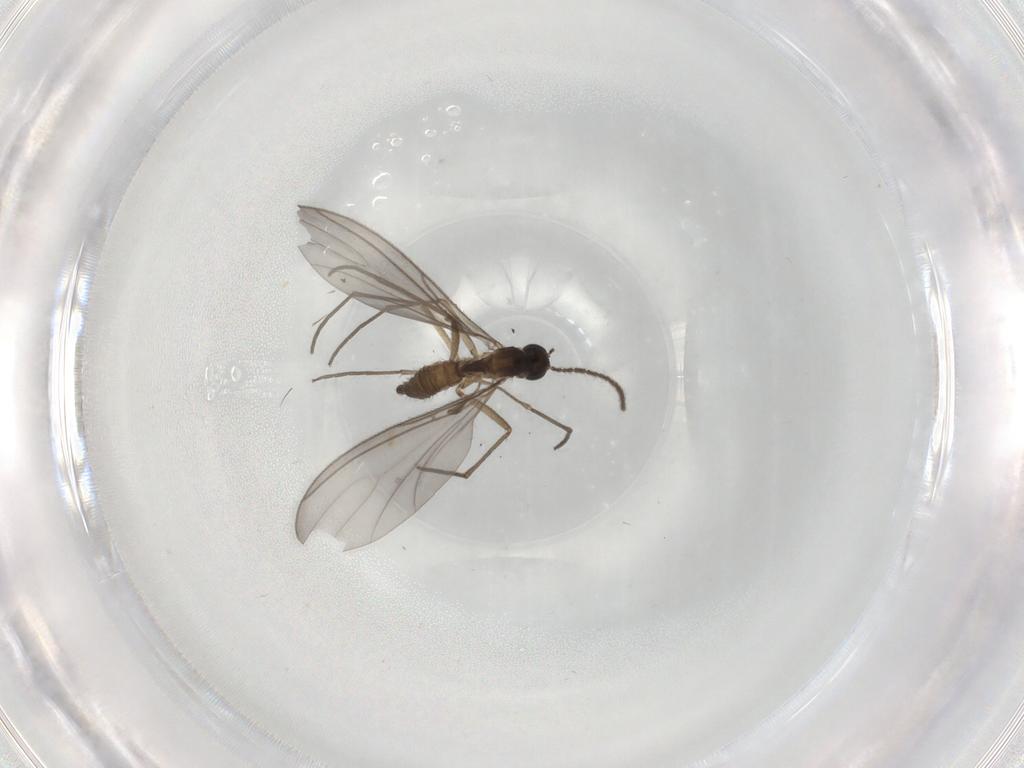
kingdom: Animalia
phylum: Arthropoda
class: Insecta
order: Diptera
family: Sciaridae
